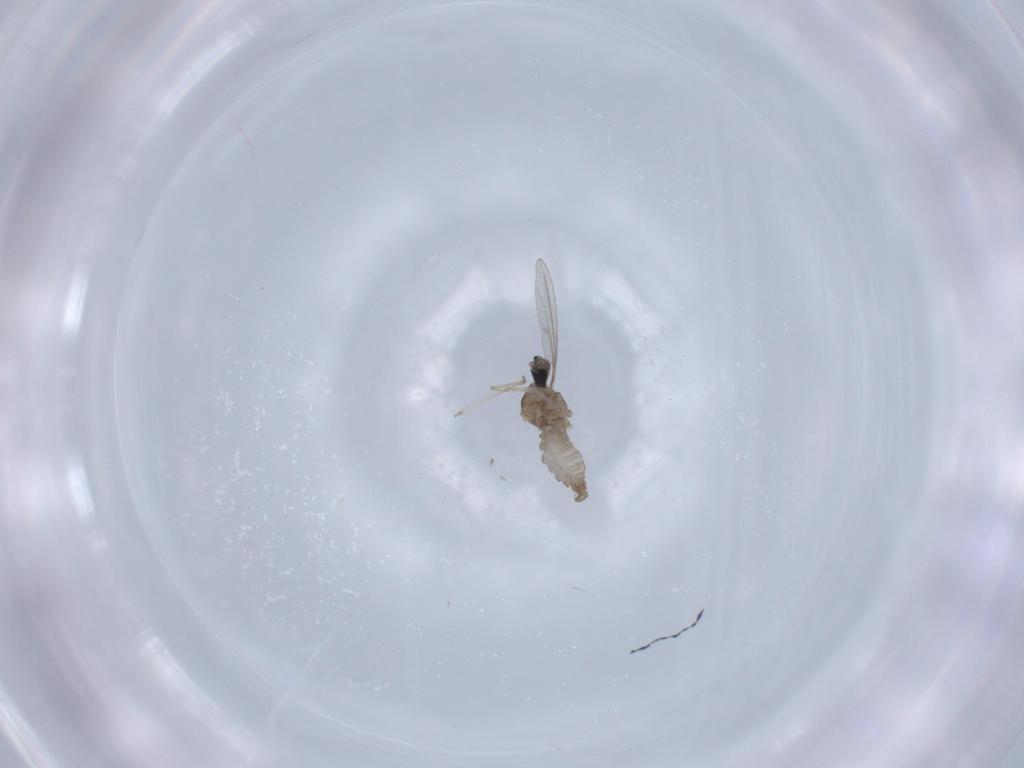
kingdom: Animalia
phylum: Arthropoda
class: Insecta
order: Diptera
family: Cecidomyiidae
